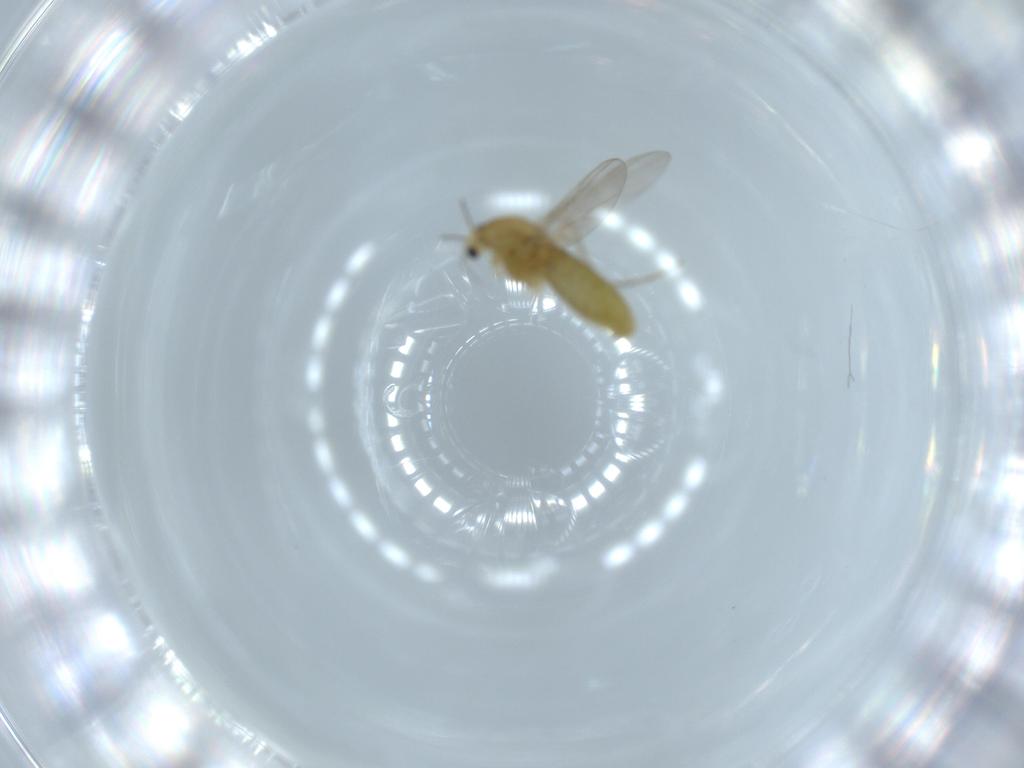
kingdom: Animalia
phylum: Arthropoda
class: Insecta
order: Diptera
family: Chironomidae
